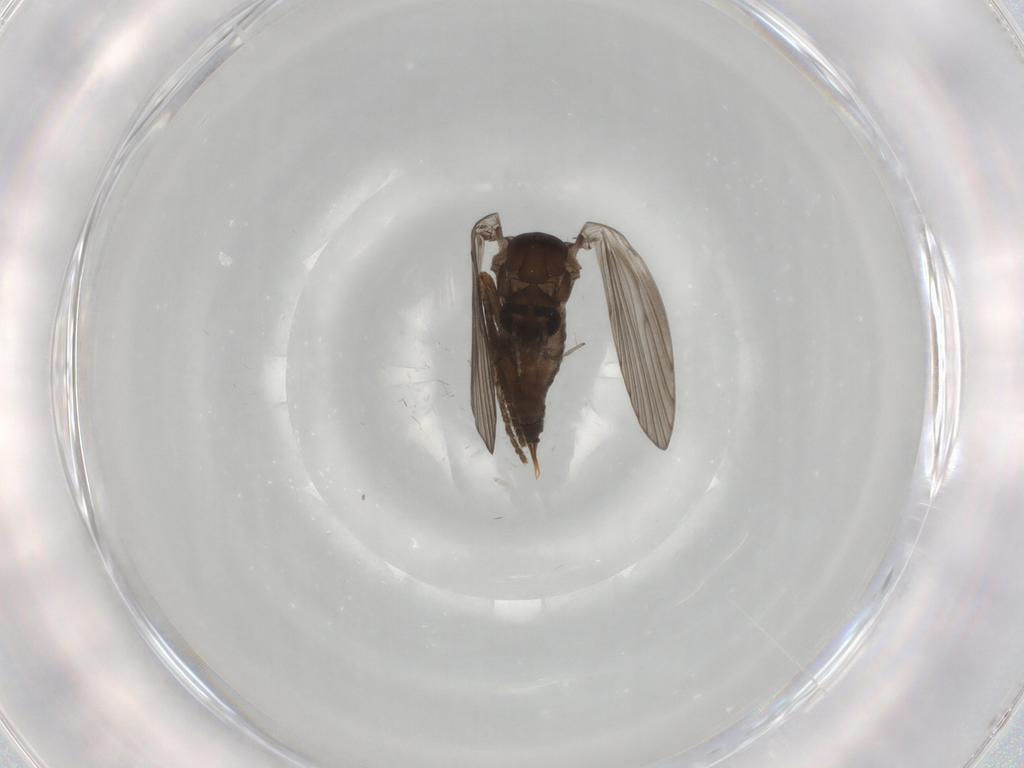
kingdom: Animalia
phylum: Arthropoda
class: Insecta
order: Diptera
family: Psychodidae
